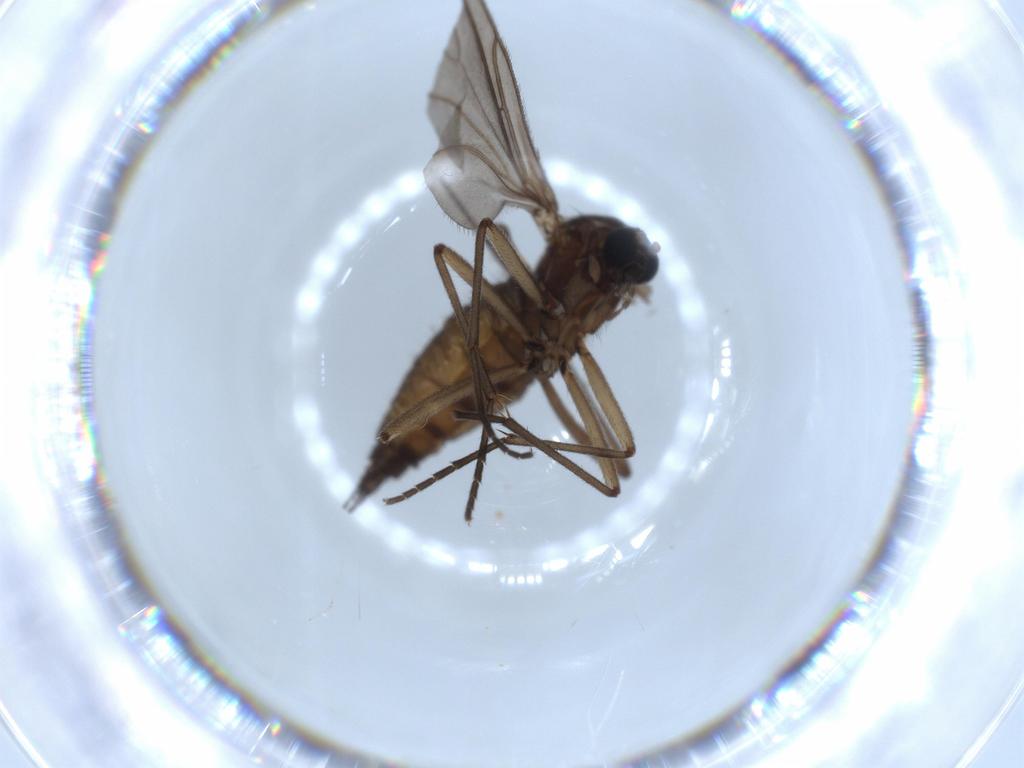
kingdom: Animalia
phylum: Arthropoda
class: Insecta
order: Diptera
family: Sciaridae
